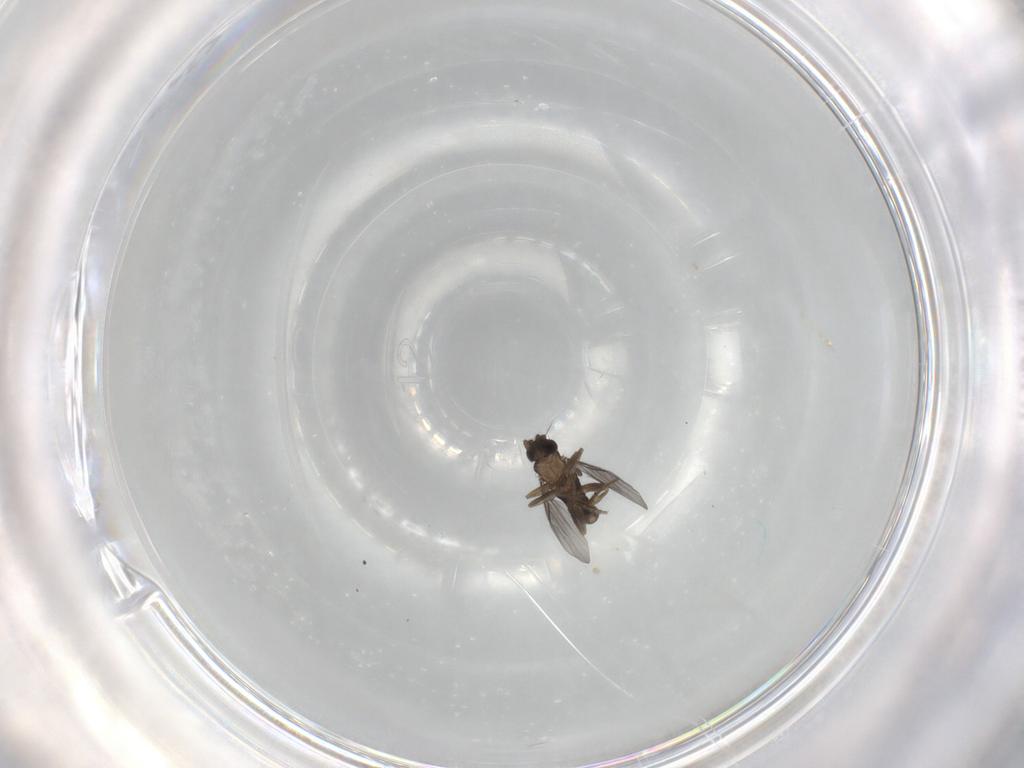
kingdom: Animalia
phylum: Arthropoda
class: Insecta
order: Diptera
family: Phoridae
